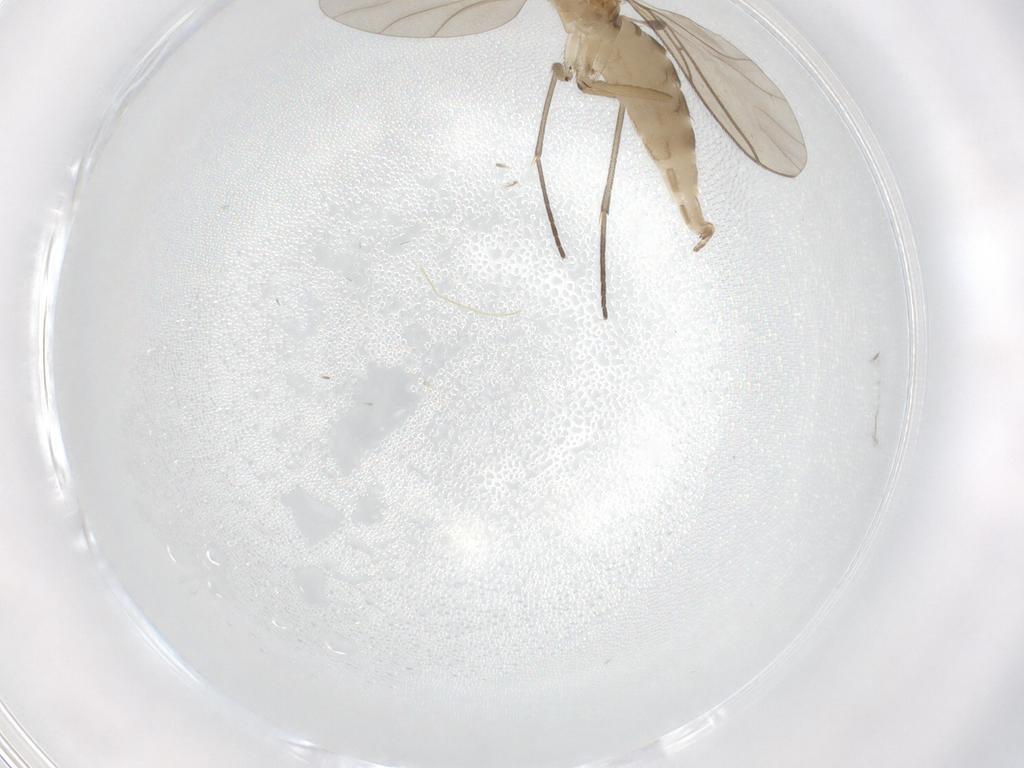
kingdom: Animalia
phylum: Arthropoda
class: Insecta
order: Diptera
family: Sciaridae
